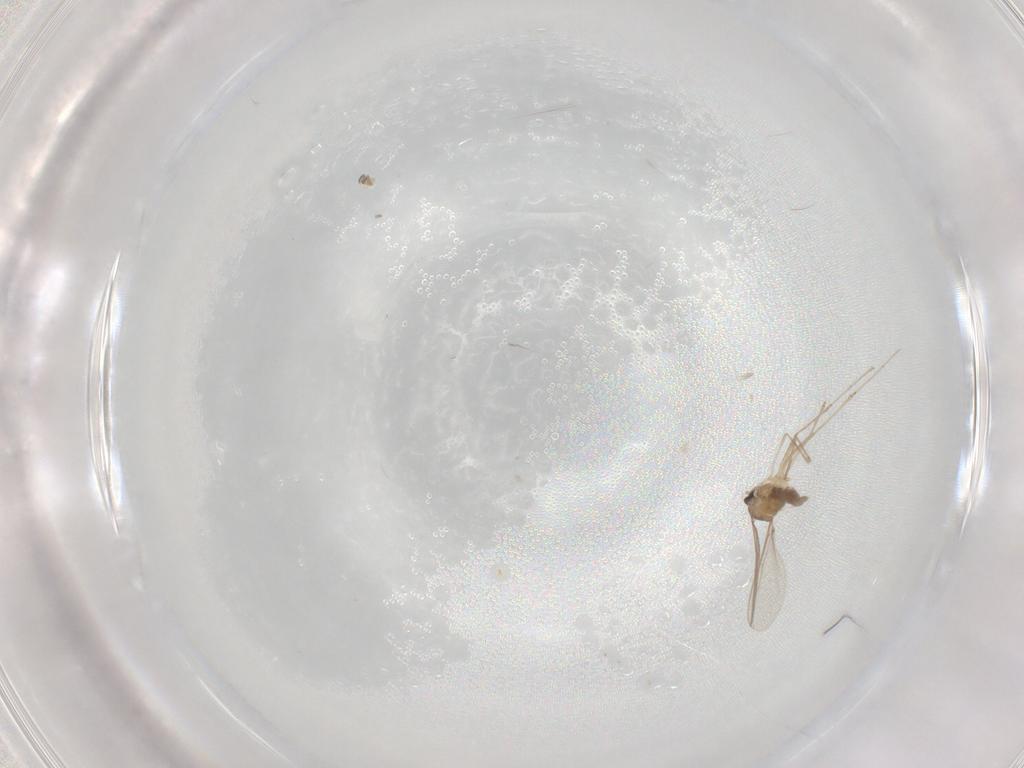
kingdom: Animalia
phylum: Arthropoda
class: Insecta
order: Diptera
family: Cecidomyiidae
